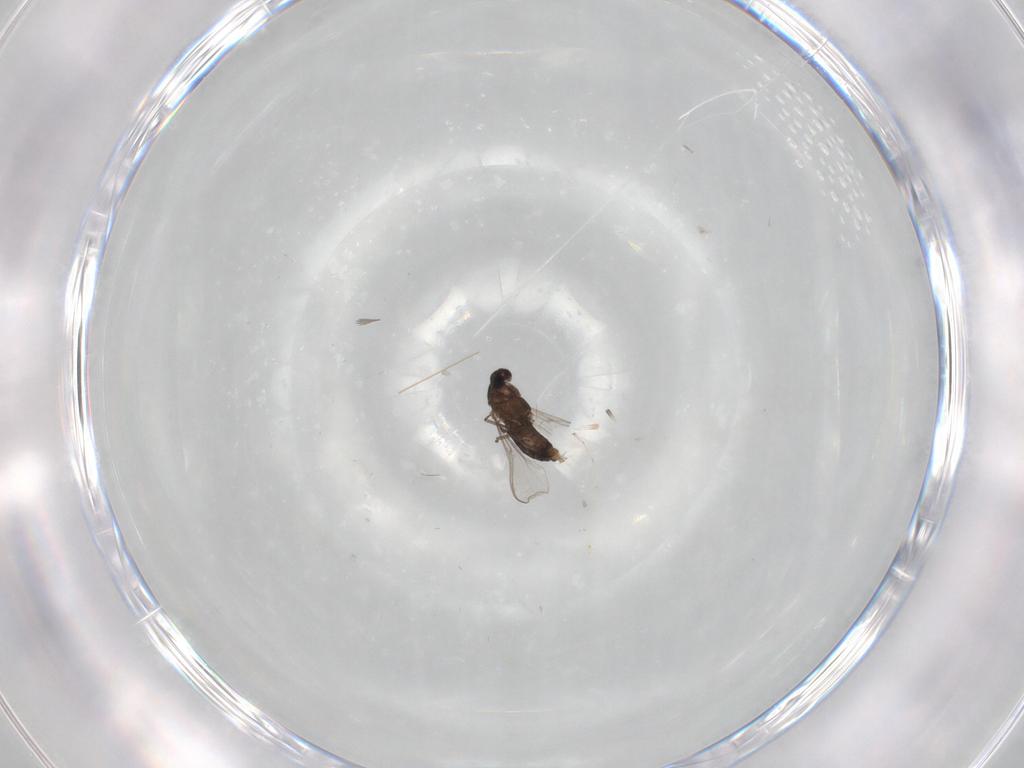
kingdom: Animalia
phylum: Arthropoda
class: Insecta
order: Diptera
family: Chironomidae
